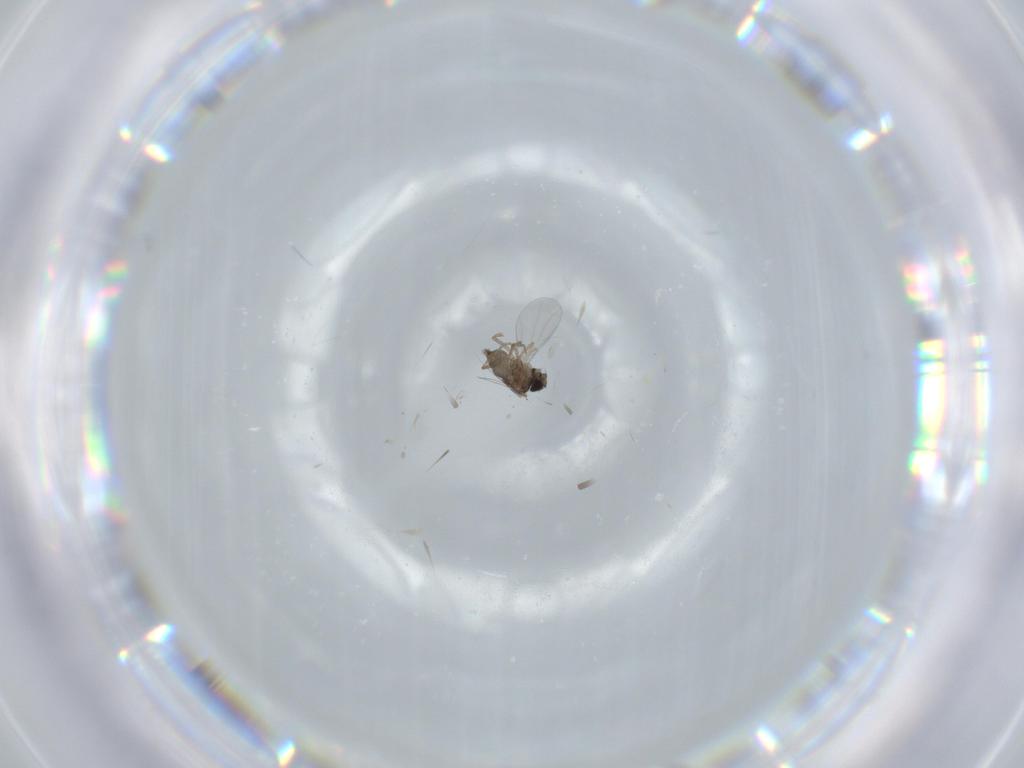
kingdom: Animalia
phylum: Arthropoda
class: Insecta
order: Diptera
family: Sciaridae
